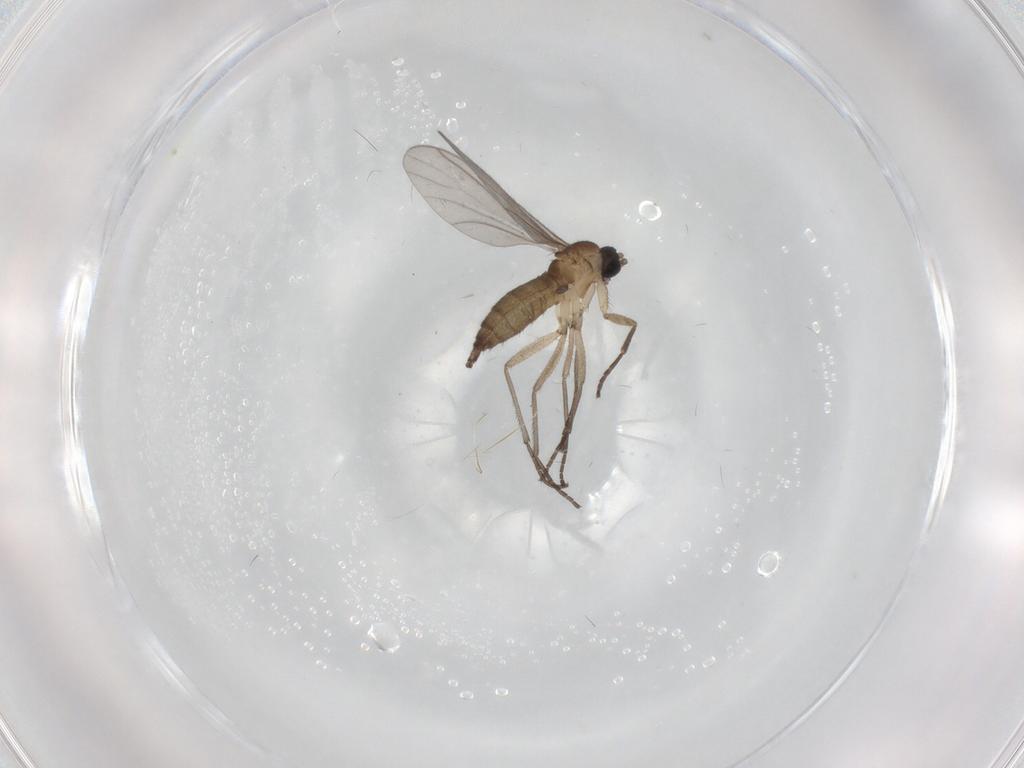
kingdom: Animalia
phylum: Arthropoda
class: Insecta
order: Diptera
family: Sciaridae
